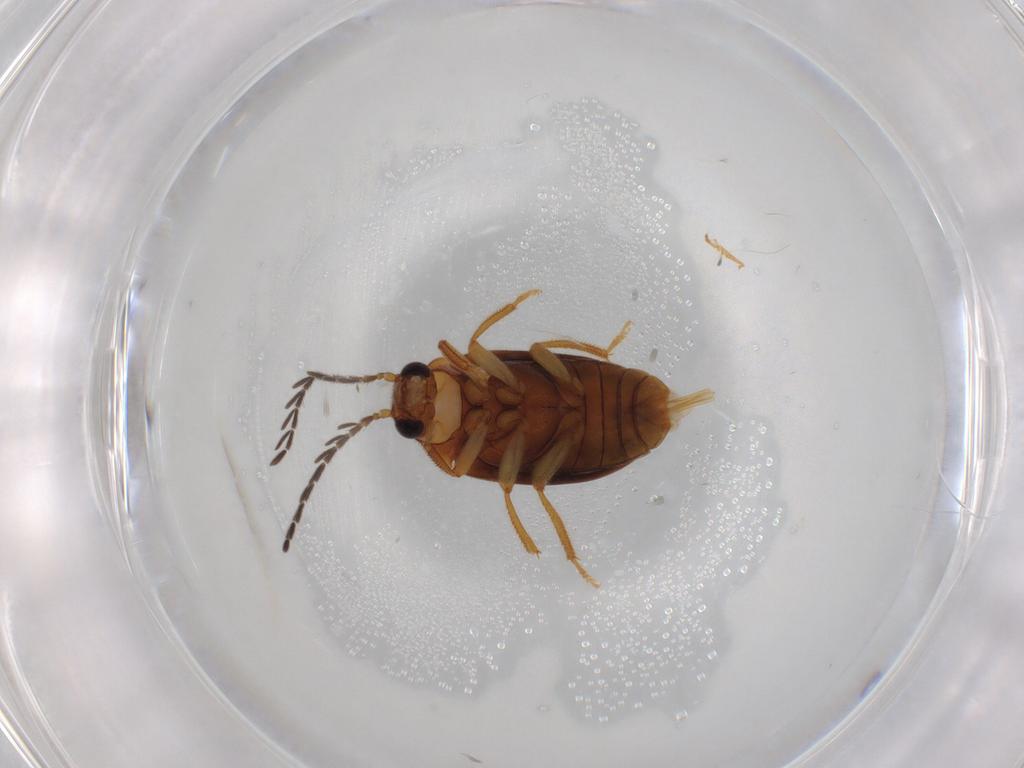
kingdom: Animalia
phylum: Arthropoda
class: Insecta
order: Coleoptera
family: Ptilodactylidae
